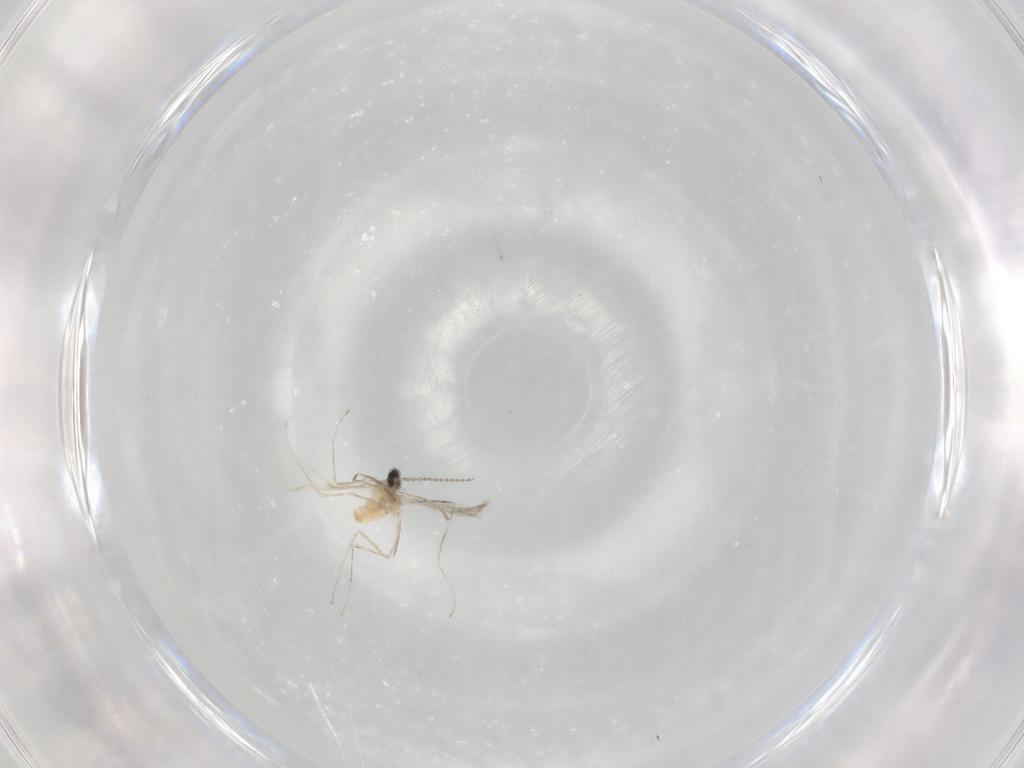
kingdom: Animalia
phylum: Arthropoda
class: Insecta
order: Diptera
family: Cecidomyiidae
